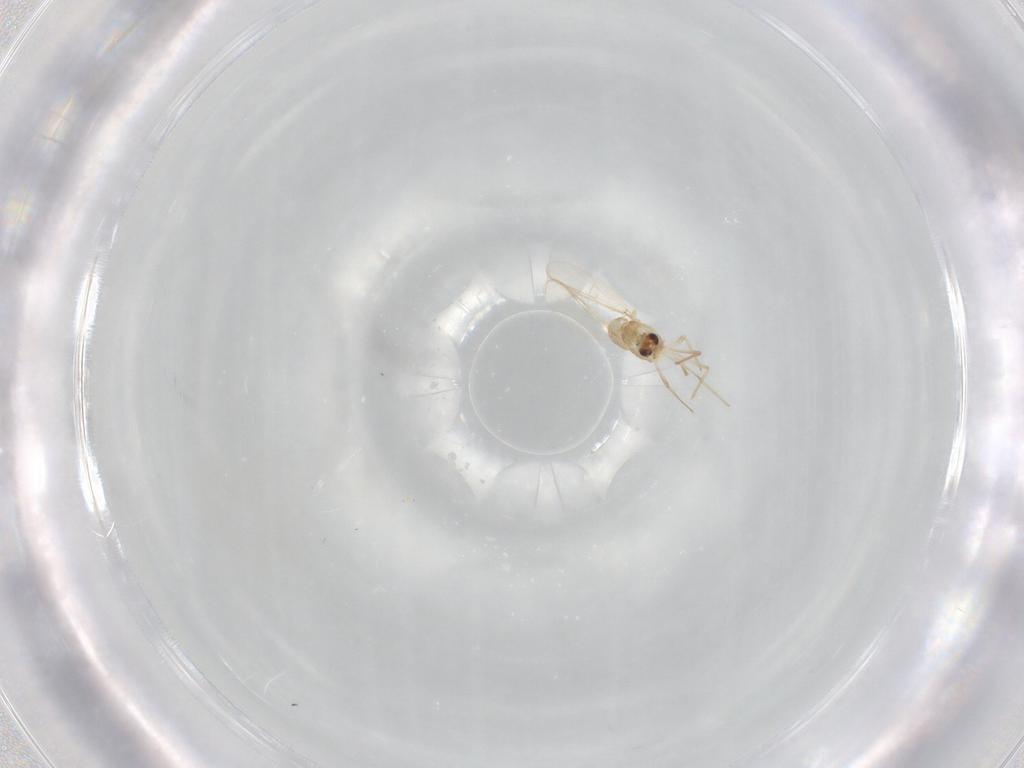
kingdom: Animalia
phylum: Arthropoda
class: Insecta
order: Diptera
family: Chironomidae
